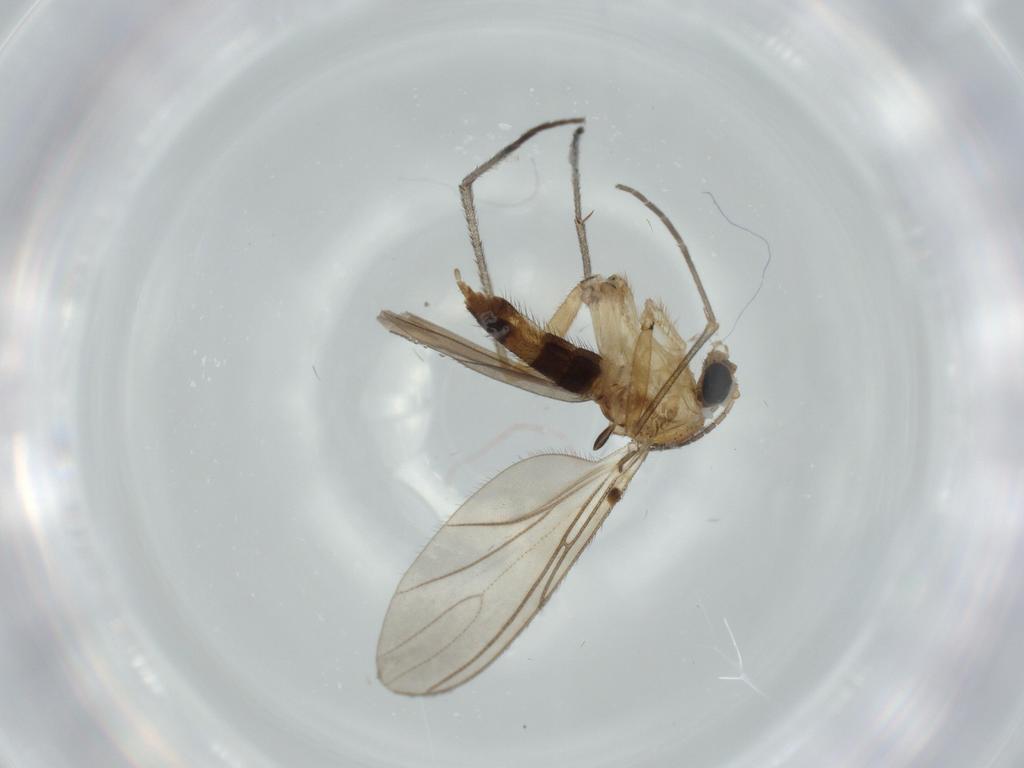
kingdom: Animalia
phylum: Arthropoda
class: Insecta
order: Diptera
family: Sciaridae
